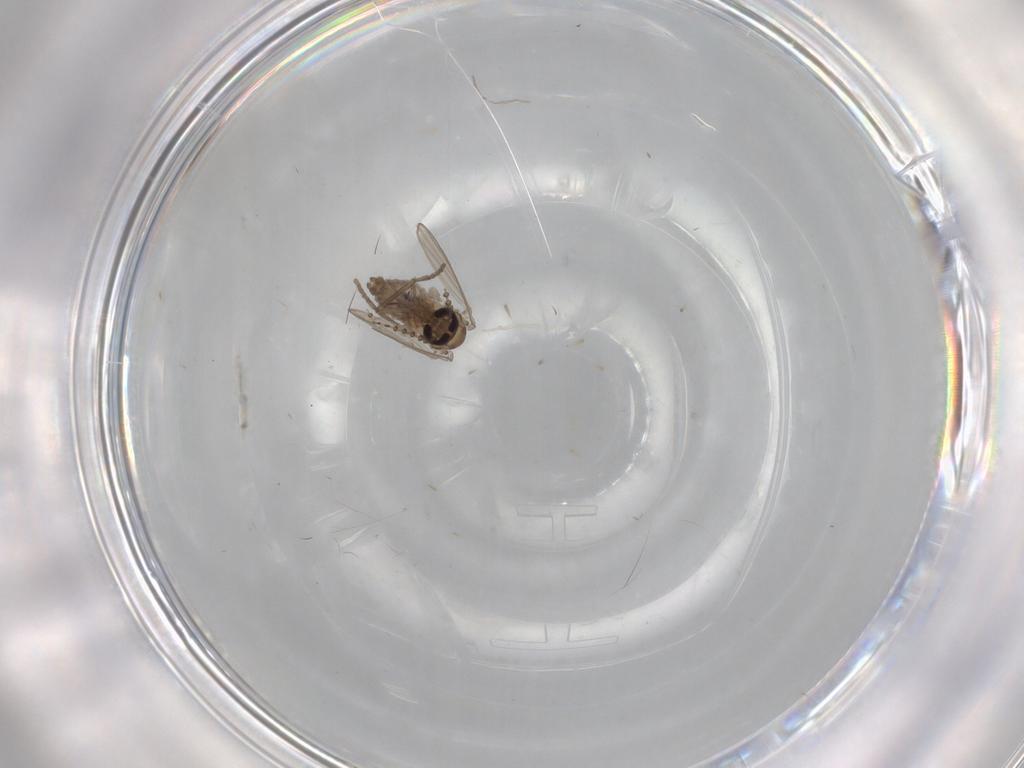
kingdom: Animalia
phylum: Arthropoda
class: Insecta
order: Diptera
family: Psychodidae
